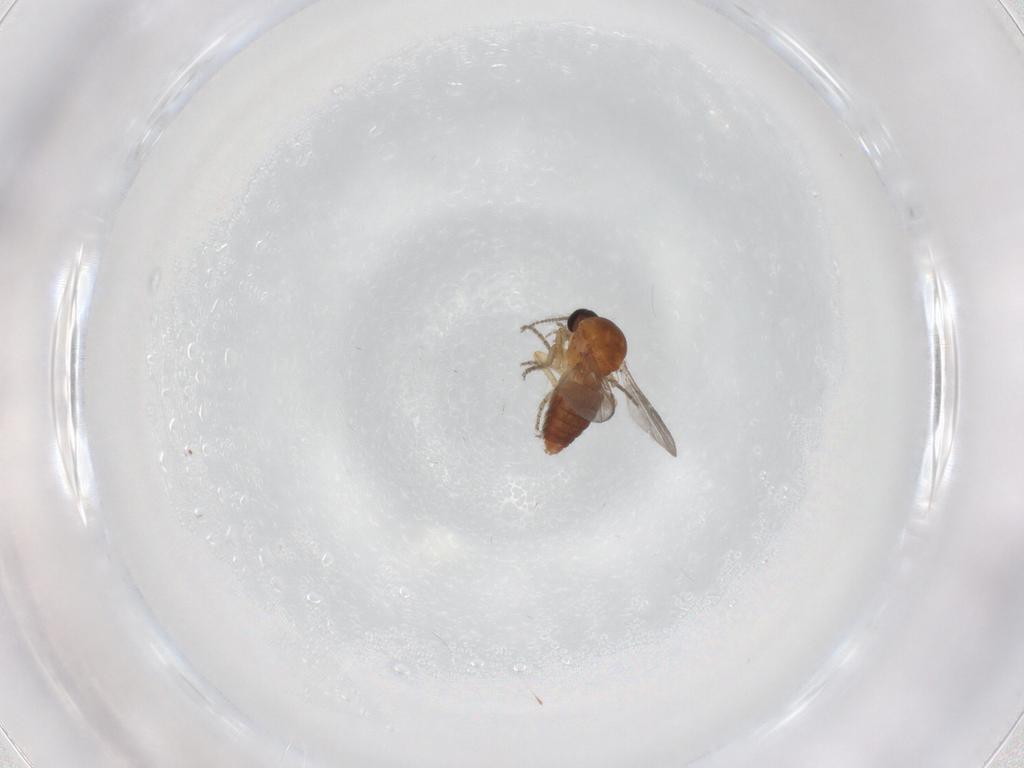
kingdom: Animalia
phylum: Arthropoda
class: Insecta
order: Diptera
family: Ceratopogonidae
